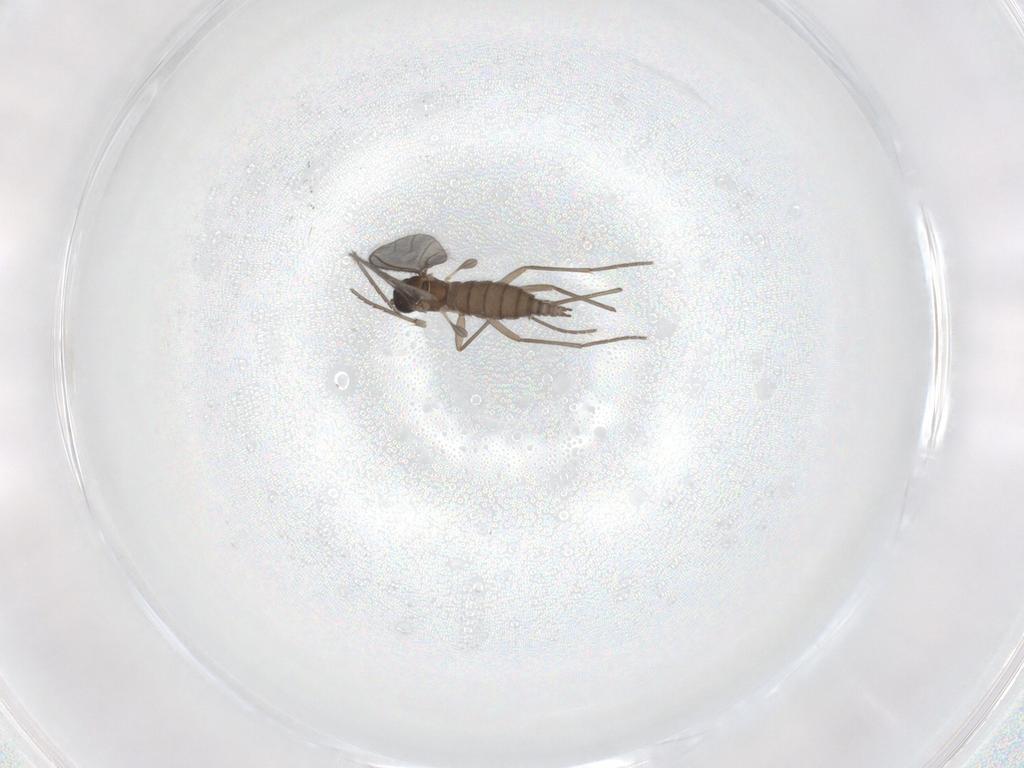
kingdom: Animalia
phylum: Arthropoda
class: Insecta
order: Diptera
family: Sciaridae
